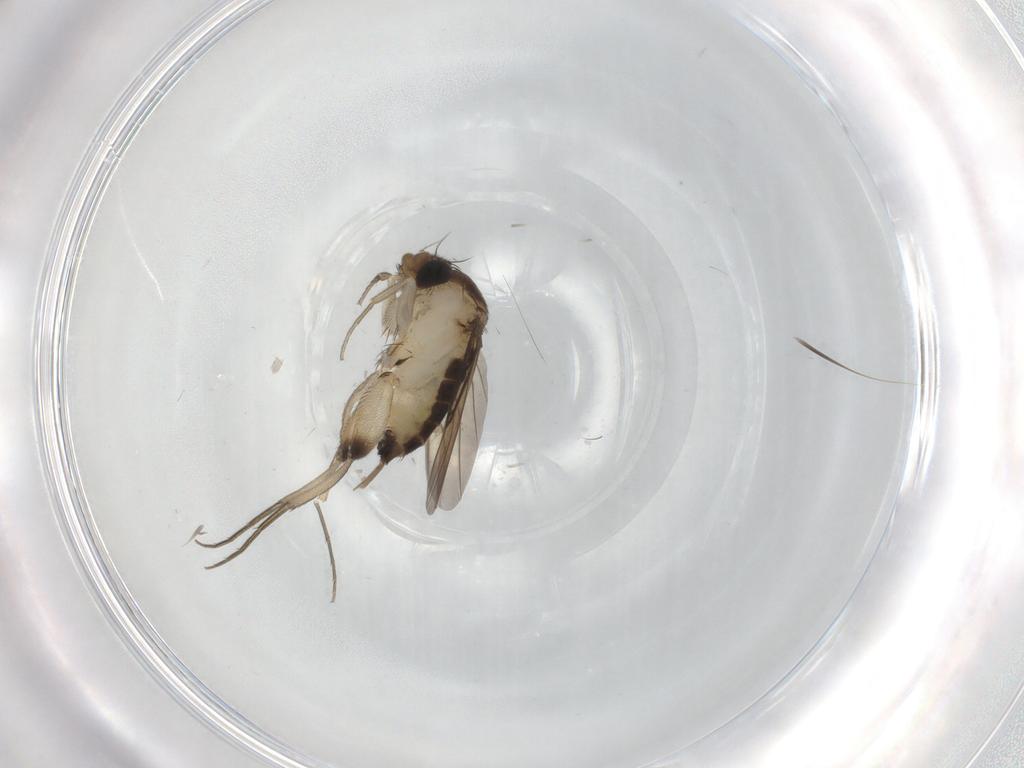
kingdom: Animalia
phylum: Arthropoda
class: Insecta
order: Diptera
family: Phoridae
